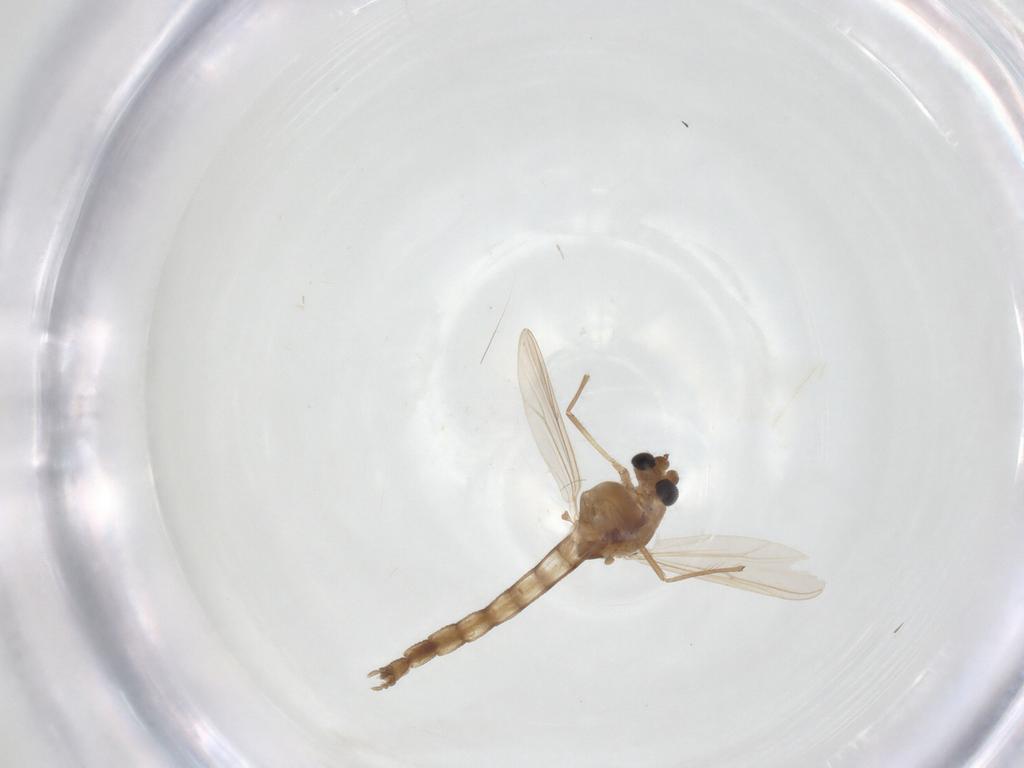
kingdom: Animalia
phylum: Arthropoda
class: Insecta
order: Diptera
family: Chironomidae
